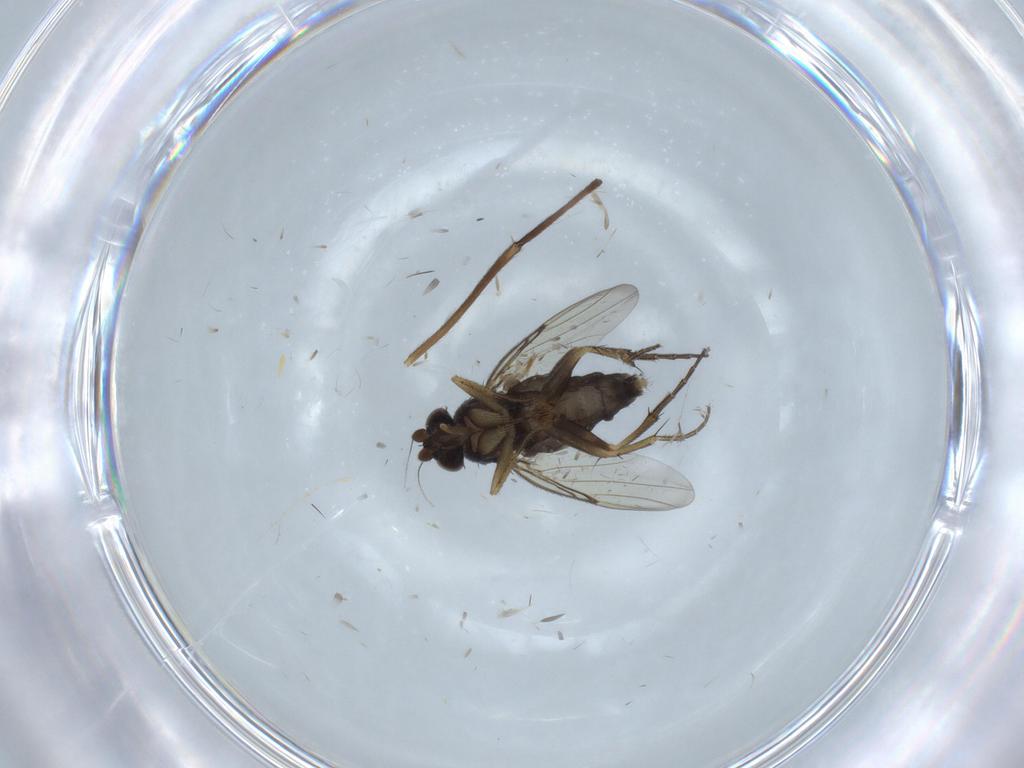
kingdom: Animalia
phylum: Arthropoda
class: Insecta
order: Diptera
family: Phoridae
